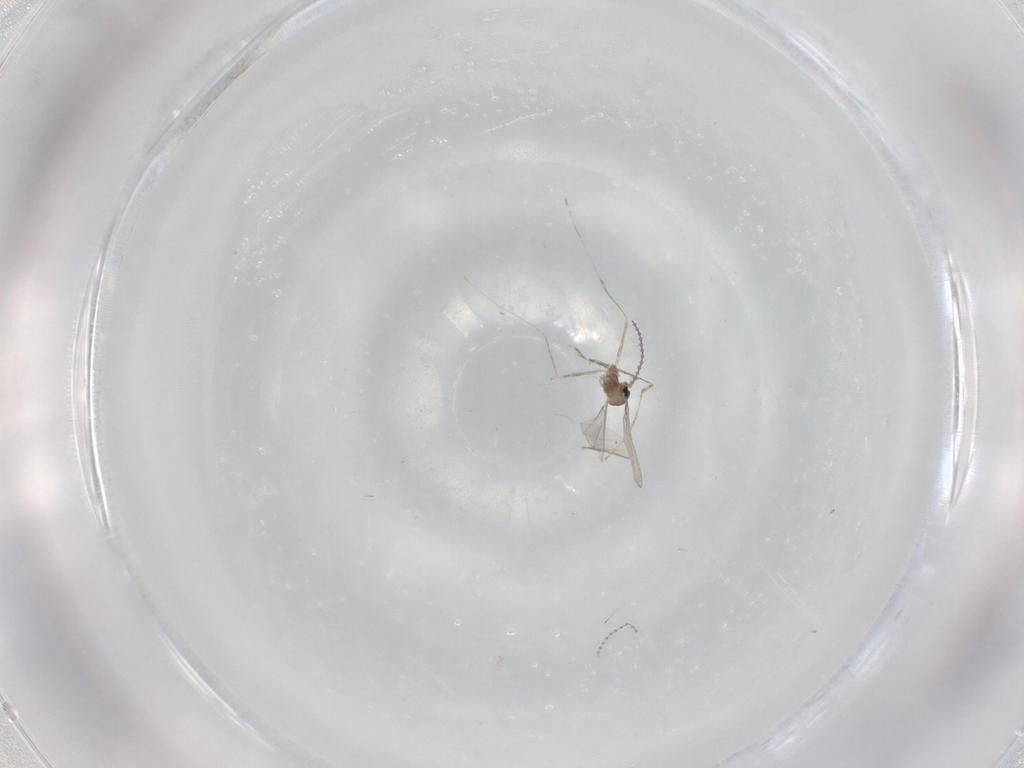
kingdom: Animalia
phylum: Arthropoda
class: Insecta
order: Diptera
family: Cecidomyiidae
